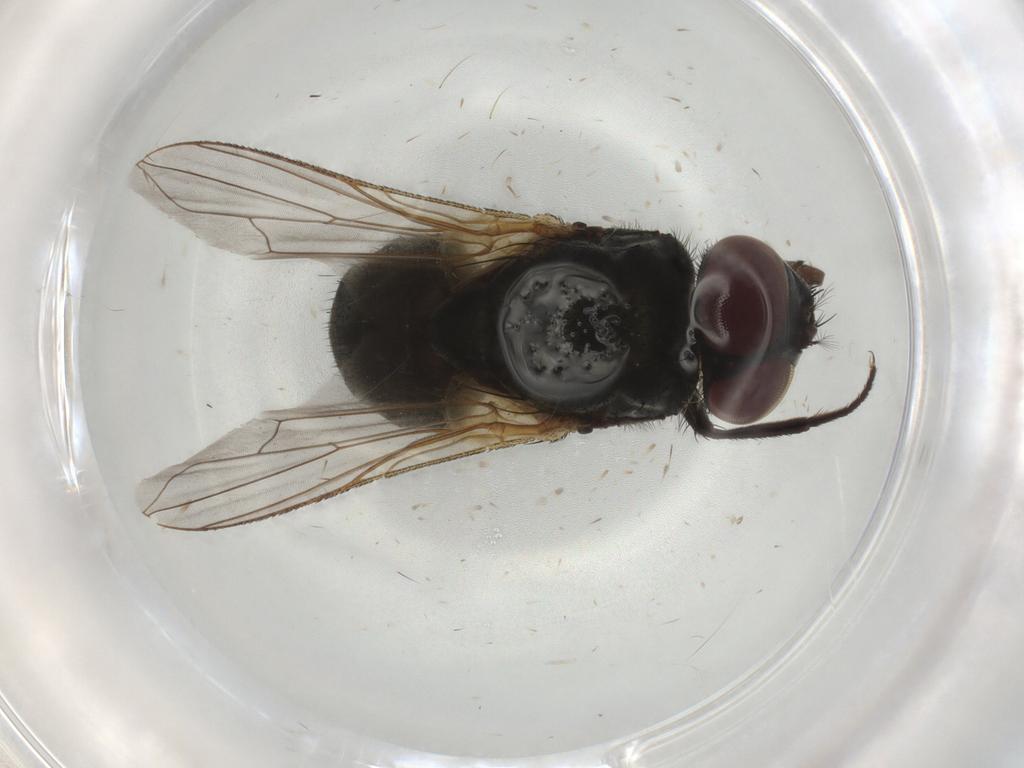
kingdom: Animalia
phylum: Arthropoda
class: Insecta
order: Diptera
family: Muscidae
